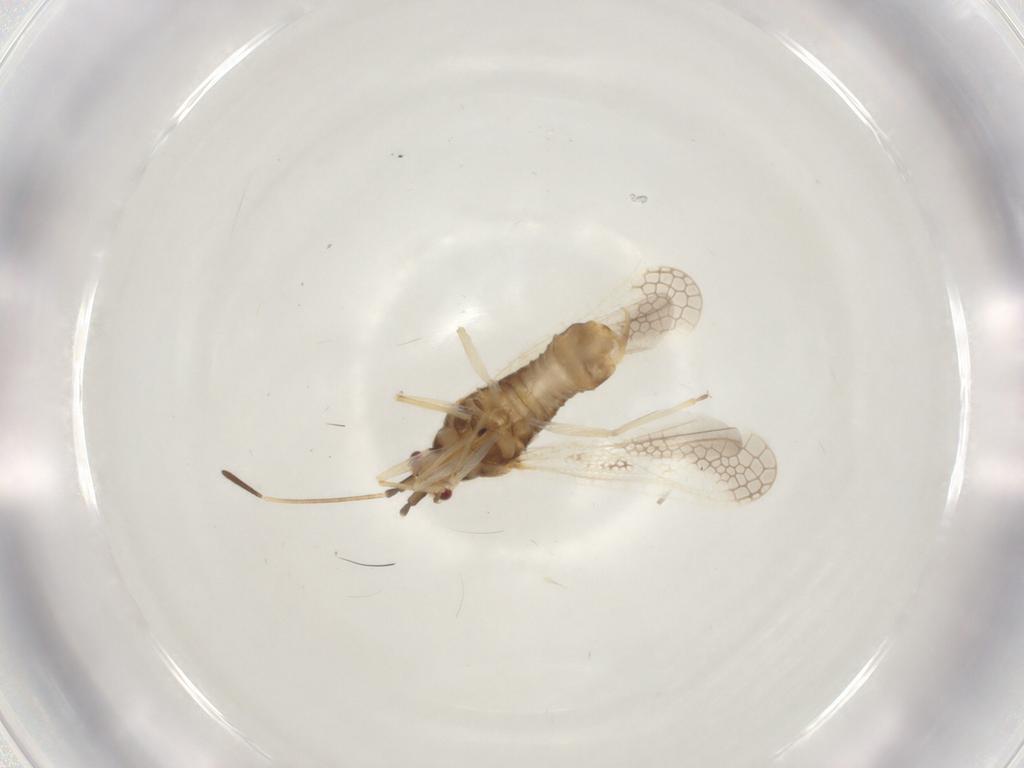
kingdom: Animalia
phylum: Arthropoda
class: Insecta
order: Hemiptera
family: Tingidae
